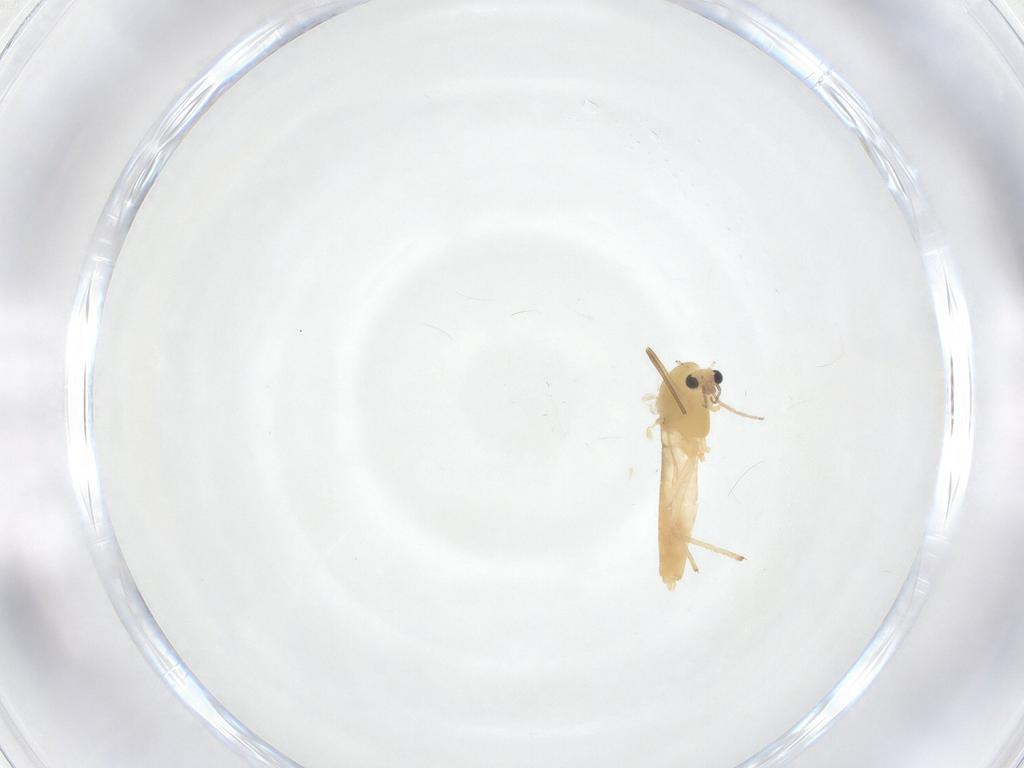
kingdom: Animalia
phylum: Arthropoda
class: Insecta
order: Diptera
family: Chironomidae
